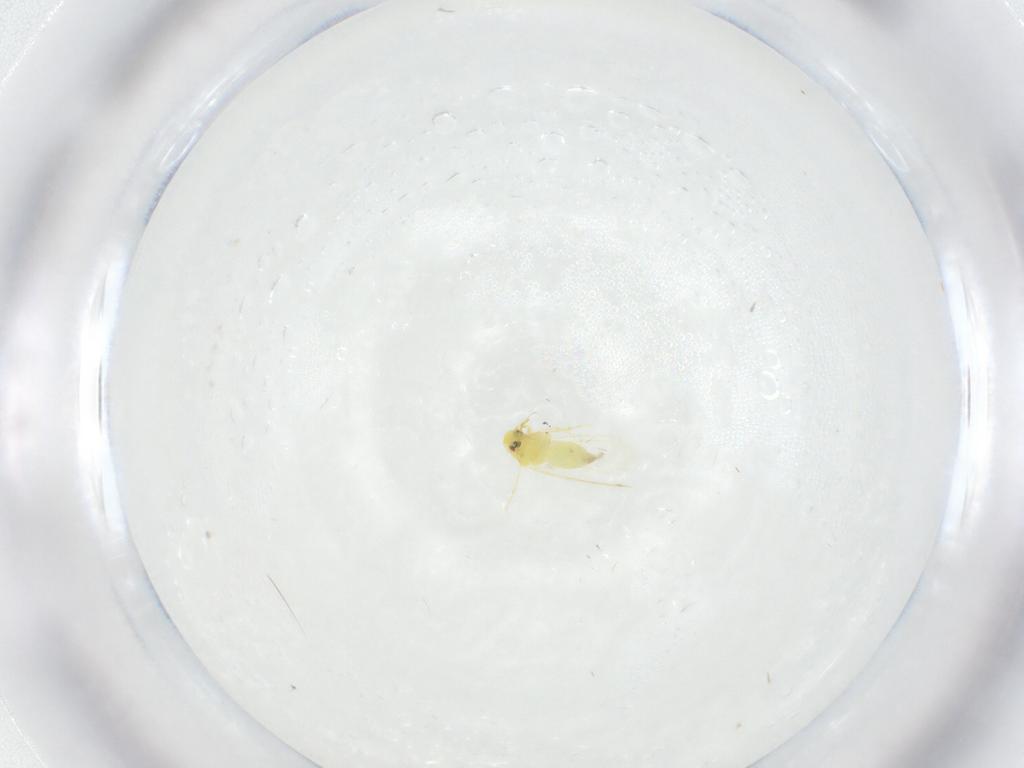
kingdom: Animalia
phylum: Arthropoda
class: Insecta
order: Hemiptera
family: Aleyrodidae
